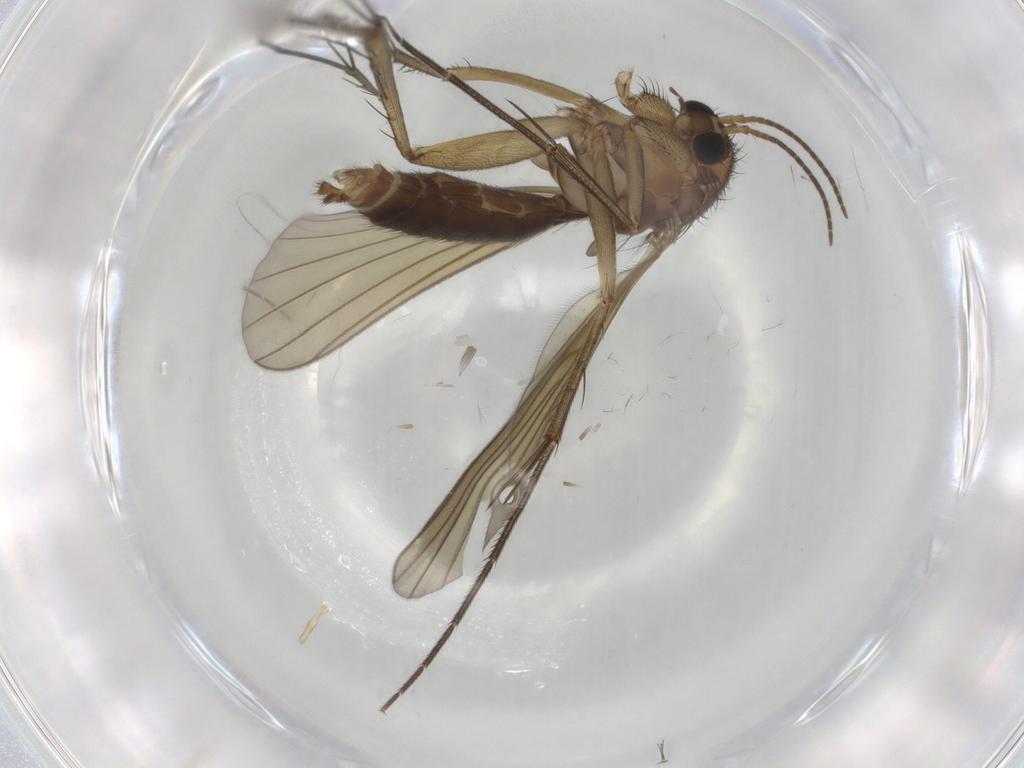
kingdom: Animalia
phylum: Arthropoda
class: Insecta
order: Diptera
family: Mycetophilidae
